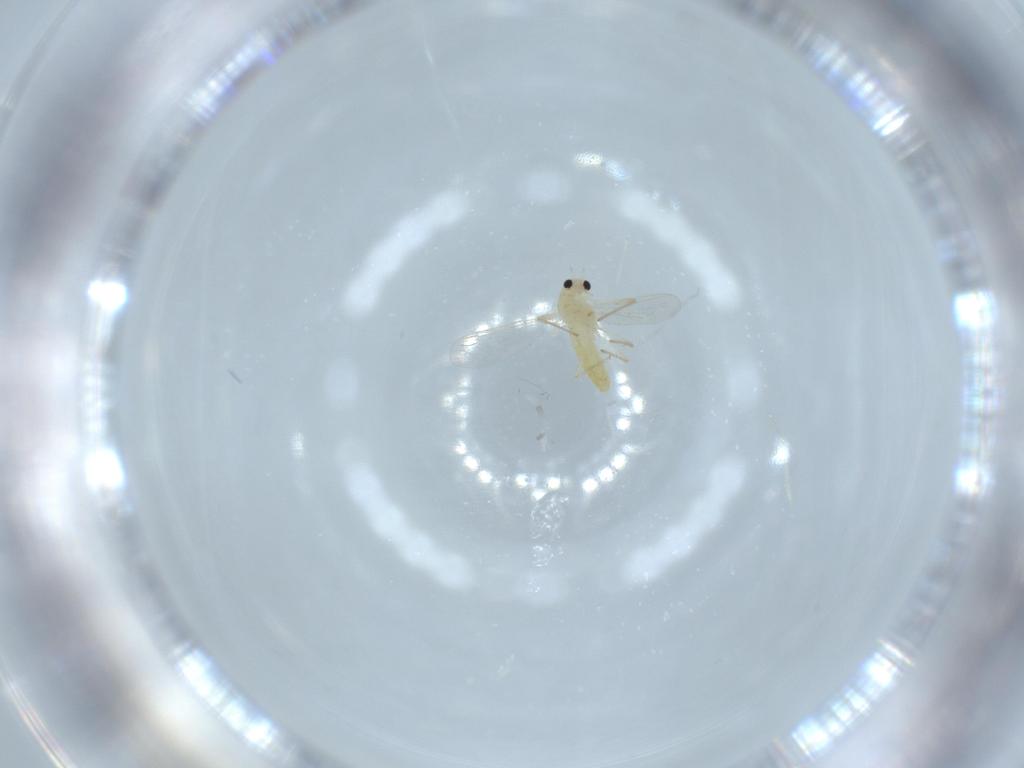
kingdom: Animalia
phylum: Arthropoda
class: Insecta
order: Diptera
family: Chironomidae
